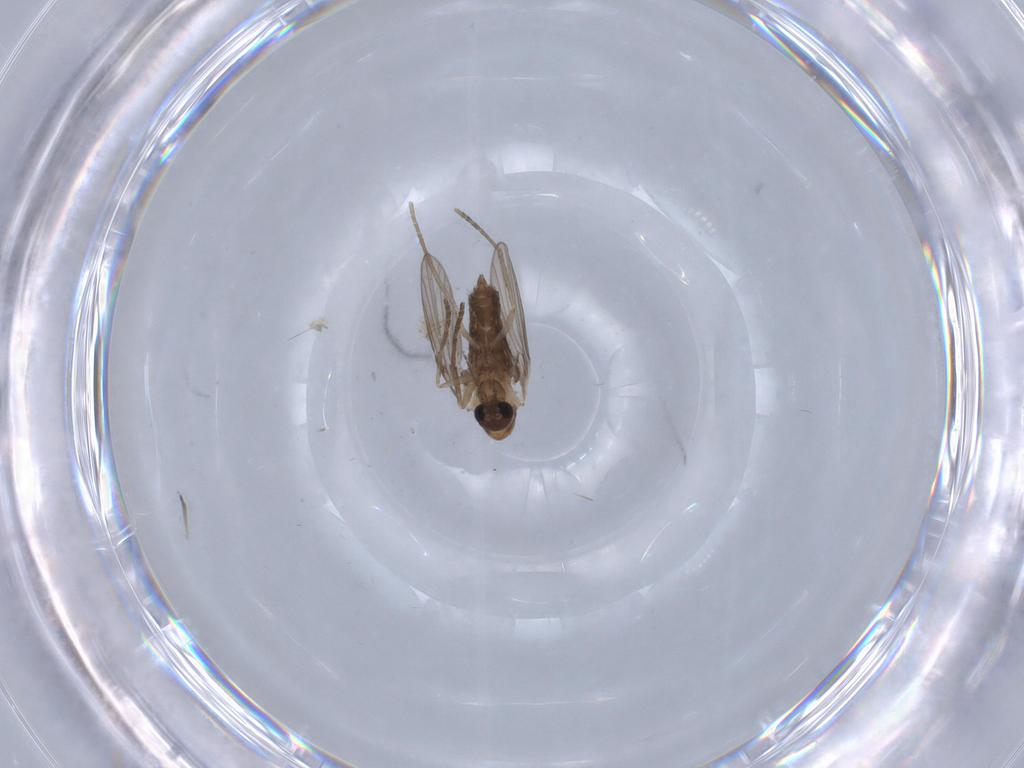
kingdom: Animalia
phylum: Arthropoda
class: Insecta
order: Diptera
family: Psychodidae
